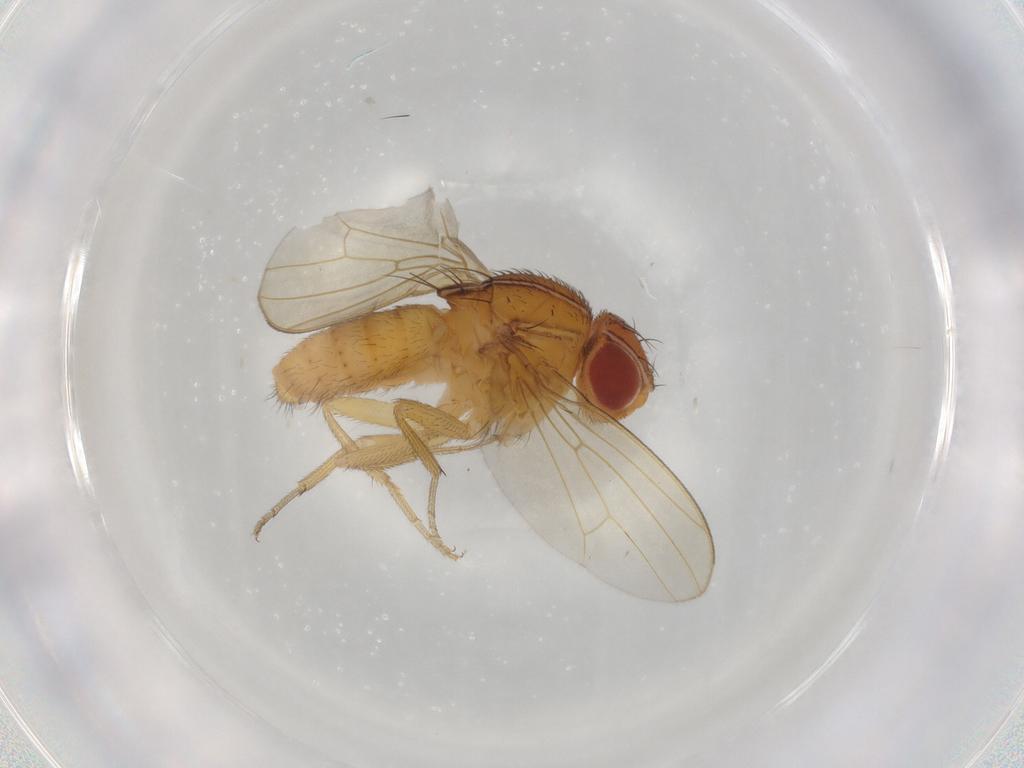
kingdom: Animalia
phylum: Arthropoda
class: Insecta
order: Diptera
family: Drosophilidae
